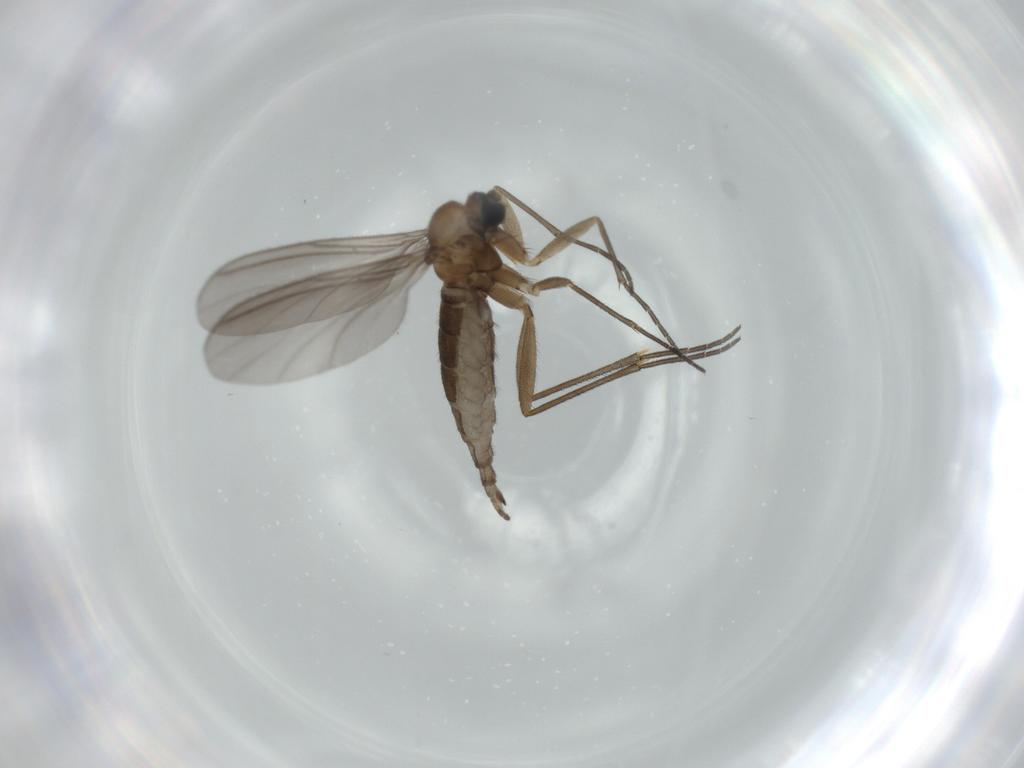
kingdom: Animalia
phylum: Arthropoda
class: Insecta
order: Diptera
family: Sciaridae
